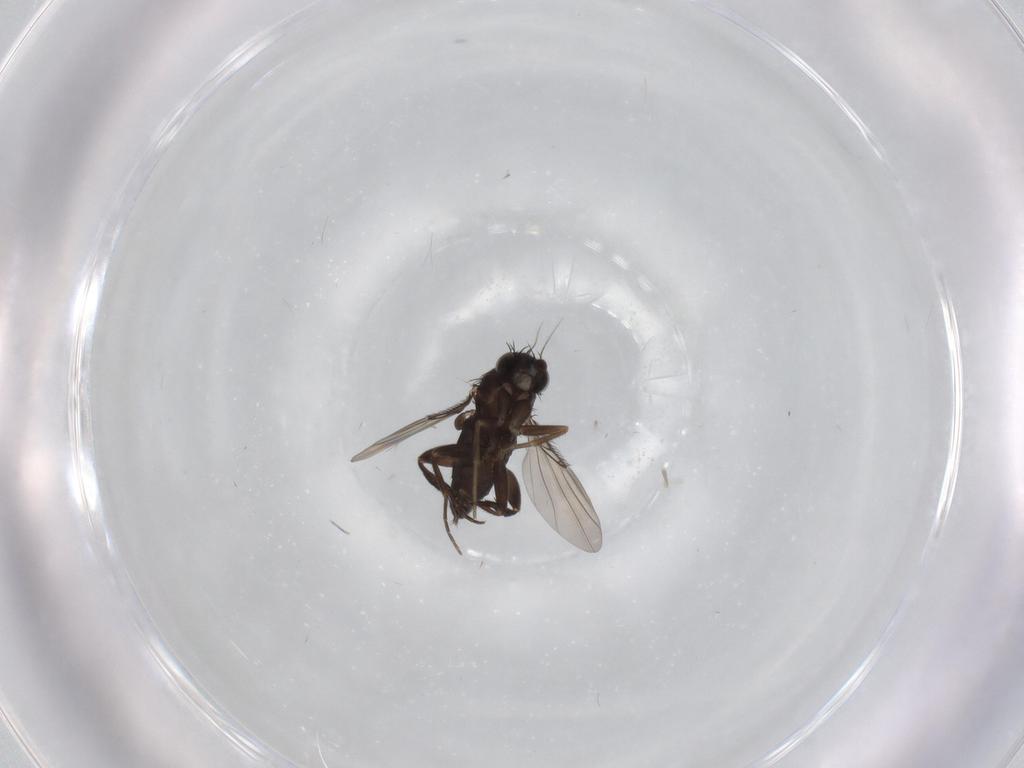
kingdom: Animalia
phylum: Arthropoda
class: Insecta
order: Diptera
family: Phoridae
